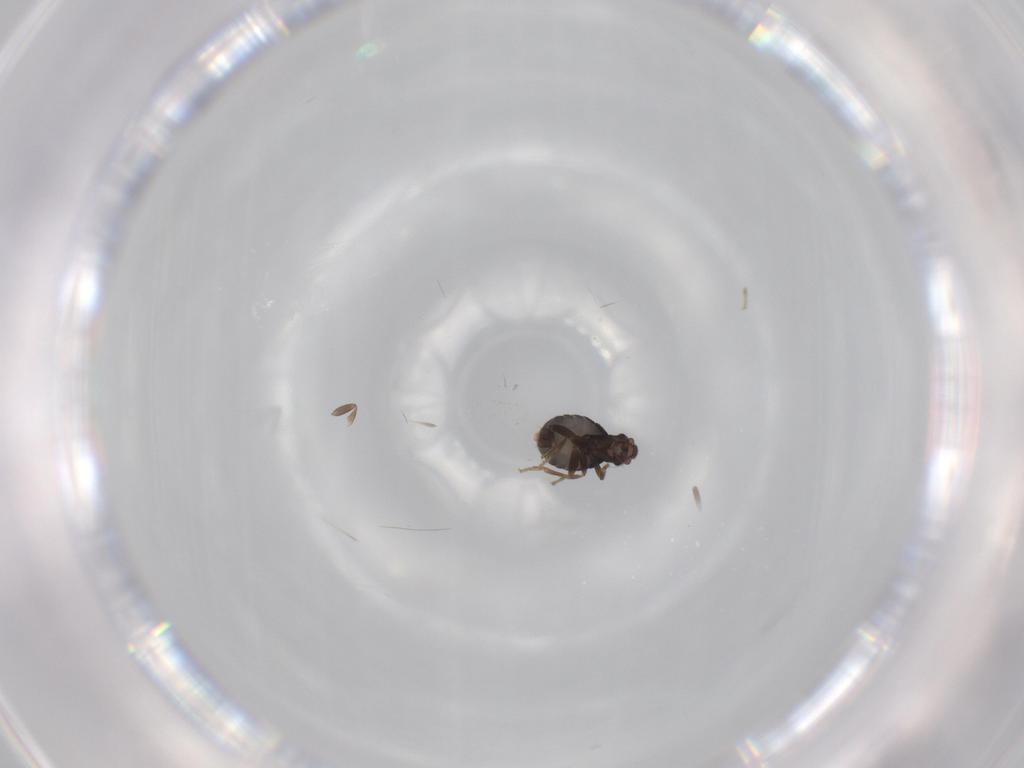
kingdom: Animalia
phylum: Arthropoda
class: Insecta
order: Diptera
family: Phoridae
